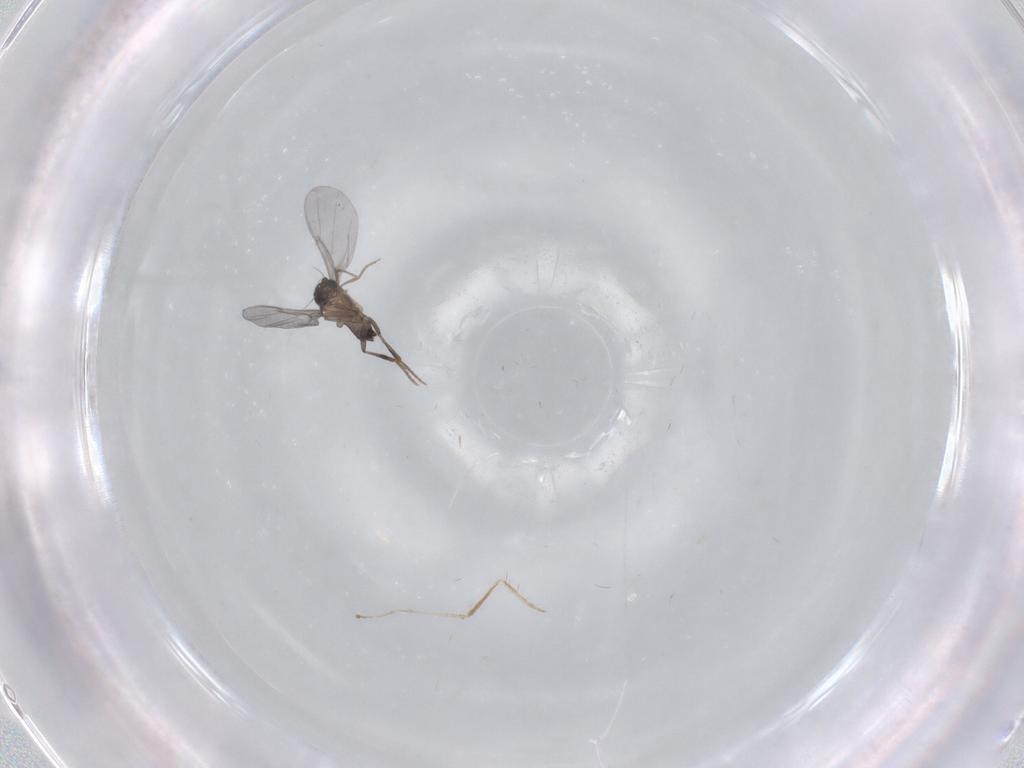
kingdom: Animalia
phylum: Arthropoda
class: Insecta
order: Diptera
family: Phoridae
